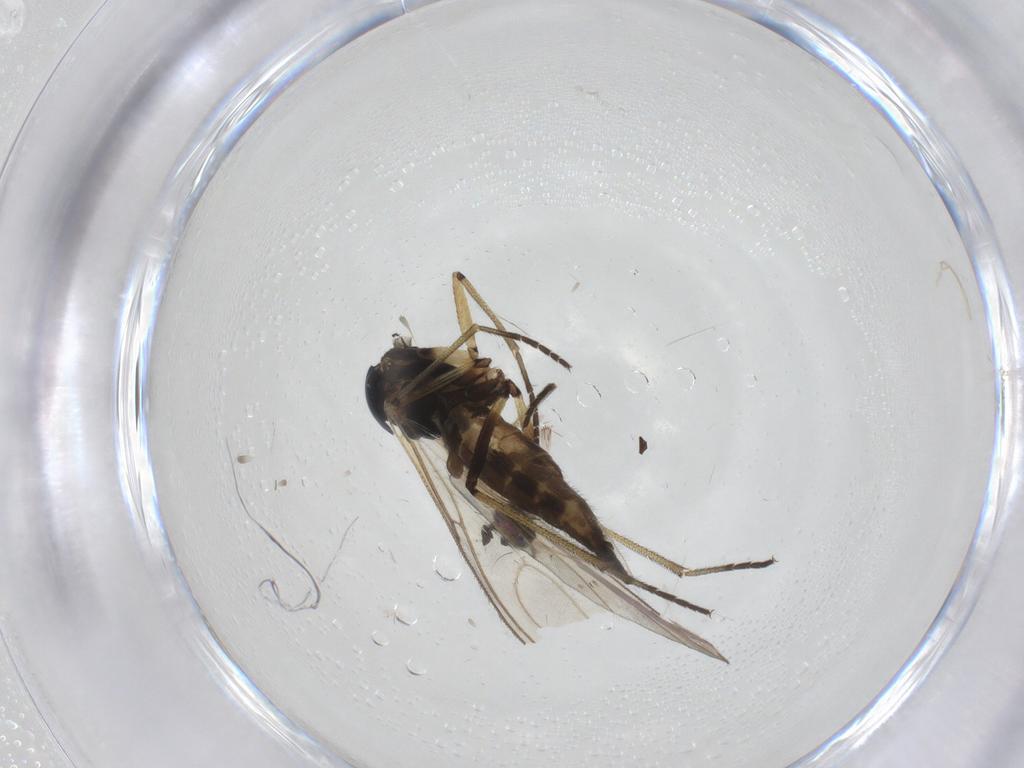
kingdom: Animalia
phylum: Arthropoda
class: Insecta
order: Diptera
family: Sciaridae
